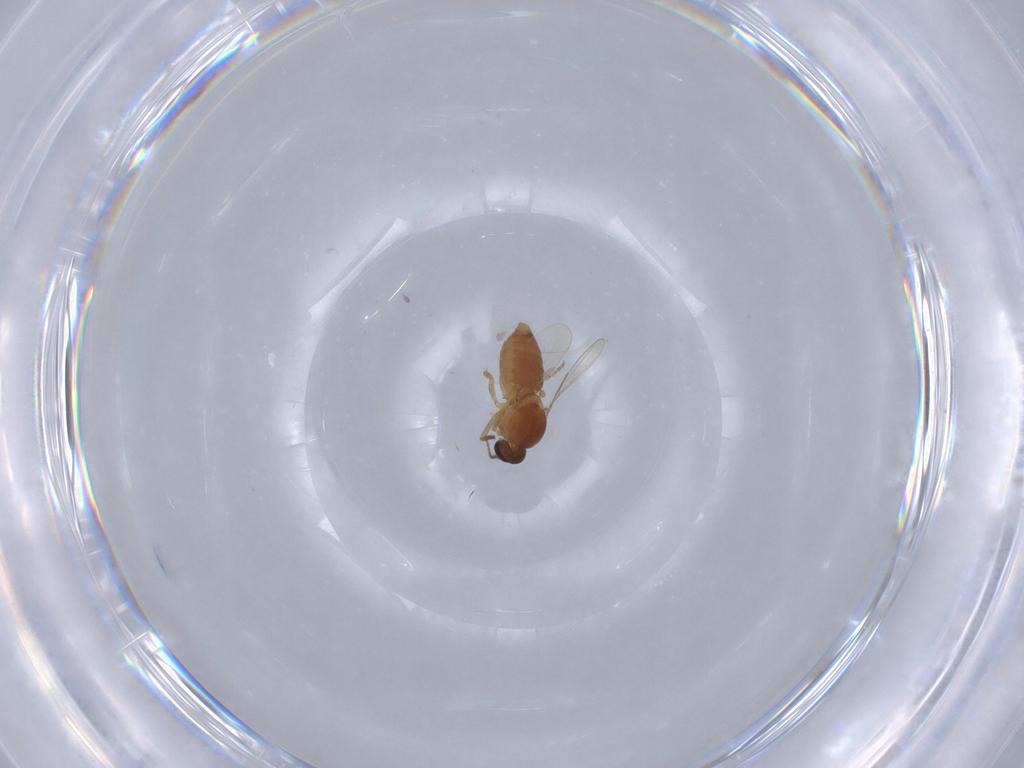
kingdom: Animalia
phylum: Arthropoda
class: Insecta
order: Diptera
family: Ceratopogonidae
